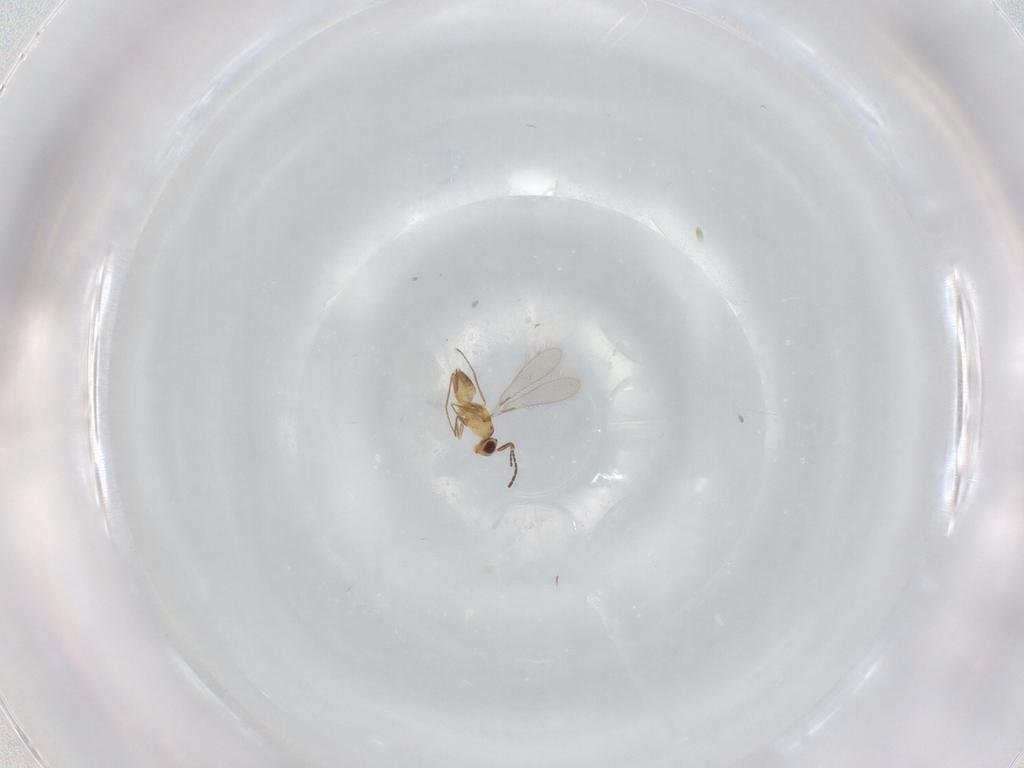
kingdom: Animalia
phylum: Arthropoda
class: Insecta
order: Hymenoptera
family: Mymaridae
